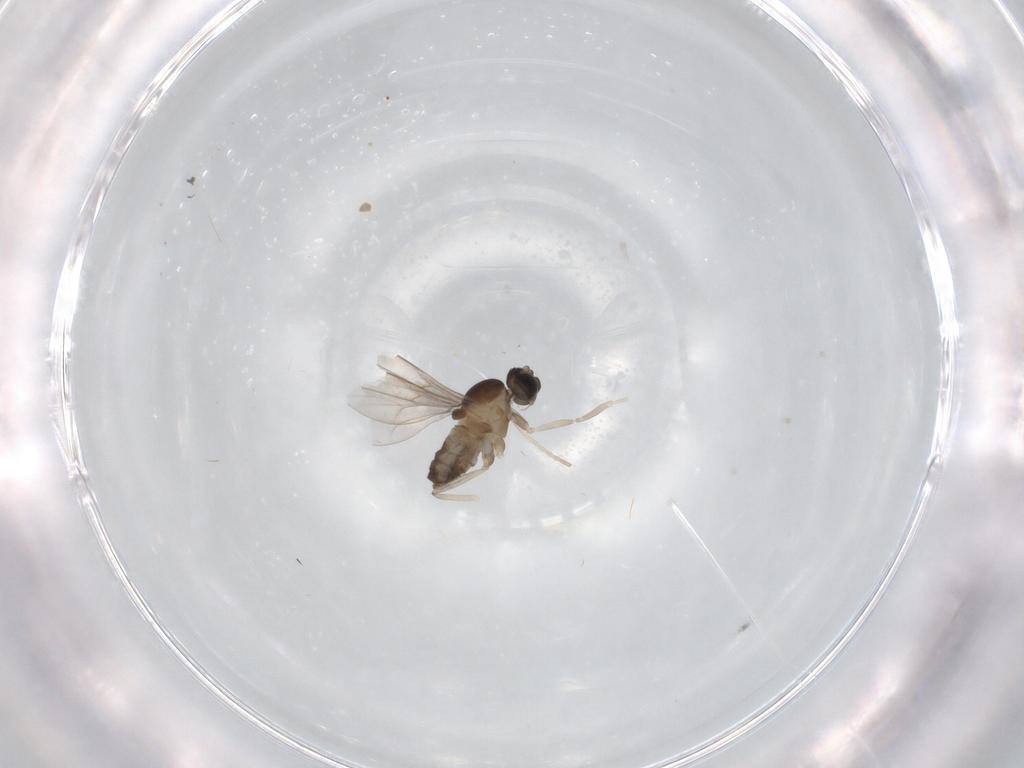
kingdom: Animalia
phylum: Arthropoda
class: Insecta
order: Diptera
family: Cecidomyiidae
